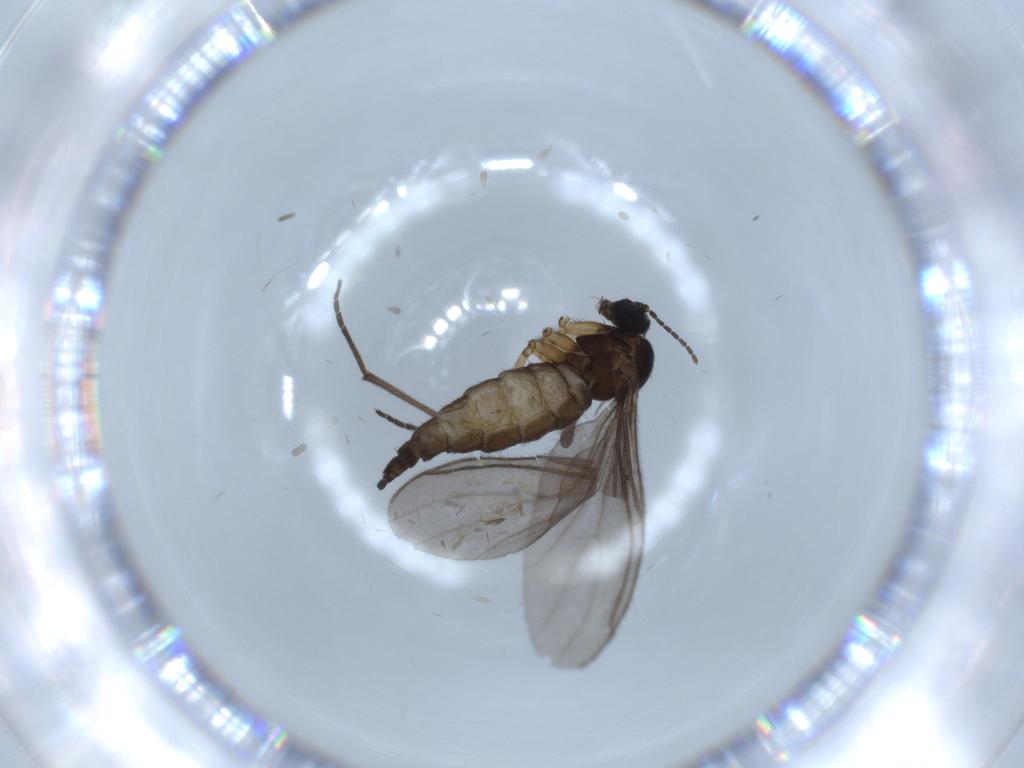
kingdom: Animalia
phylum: Arthropoda
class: Insecta
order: Diptera
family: Sciaridae
